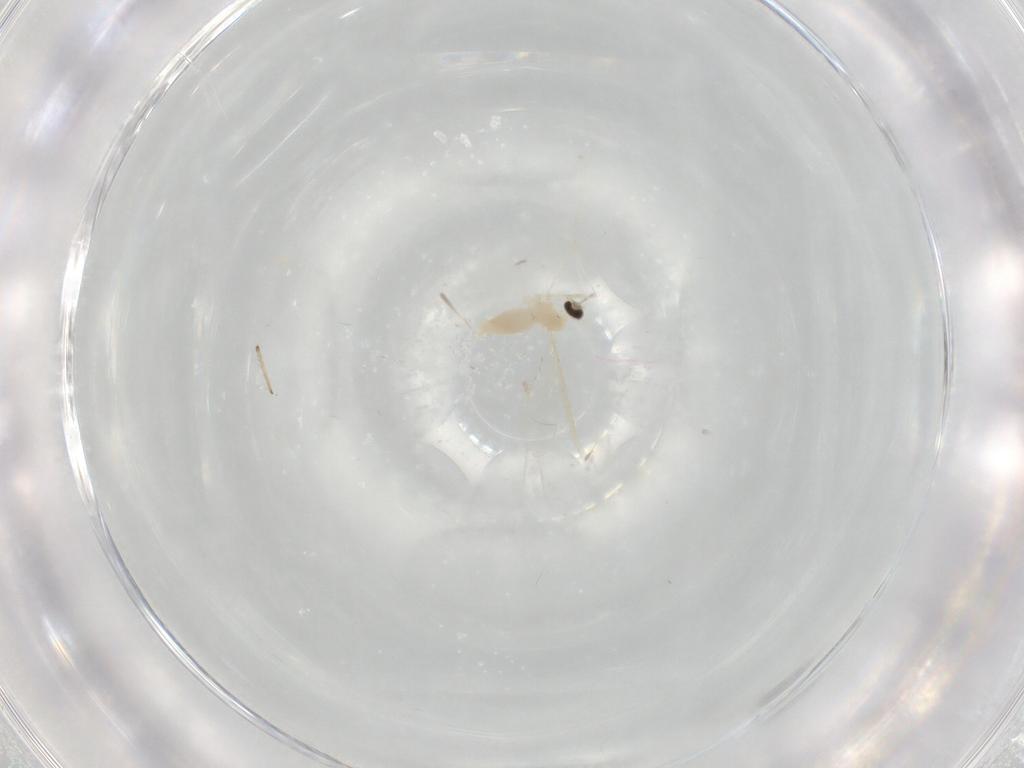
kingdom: Animalia
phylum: Arthropoda
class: Insecta
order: Diptera
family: Cecidomyiidae
